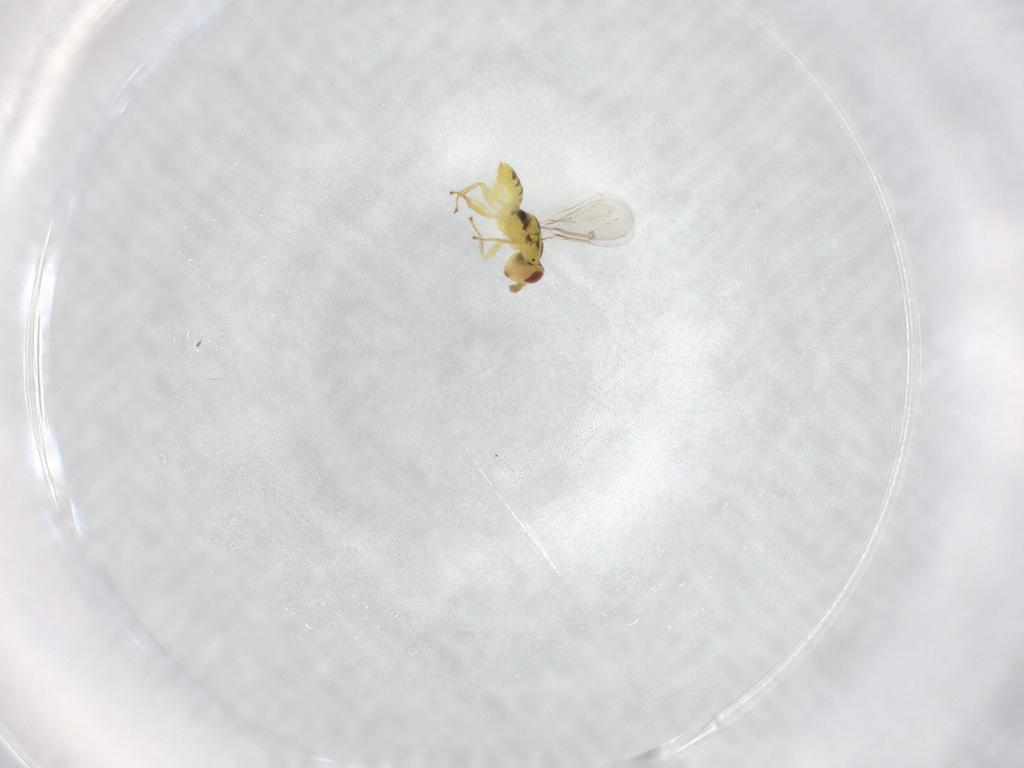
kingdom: Animalia
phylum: Arthropoda
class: Insecta
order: Hymenoptera
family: Eulophidae
